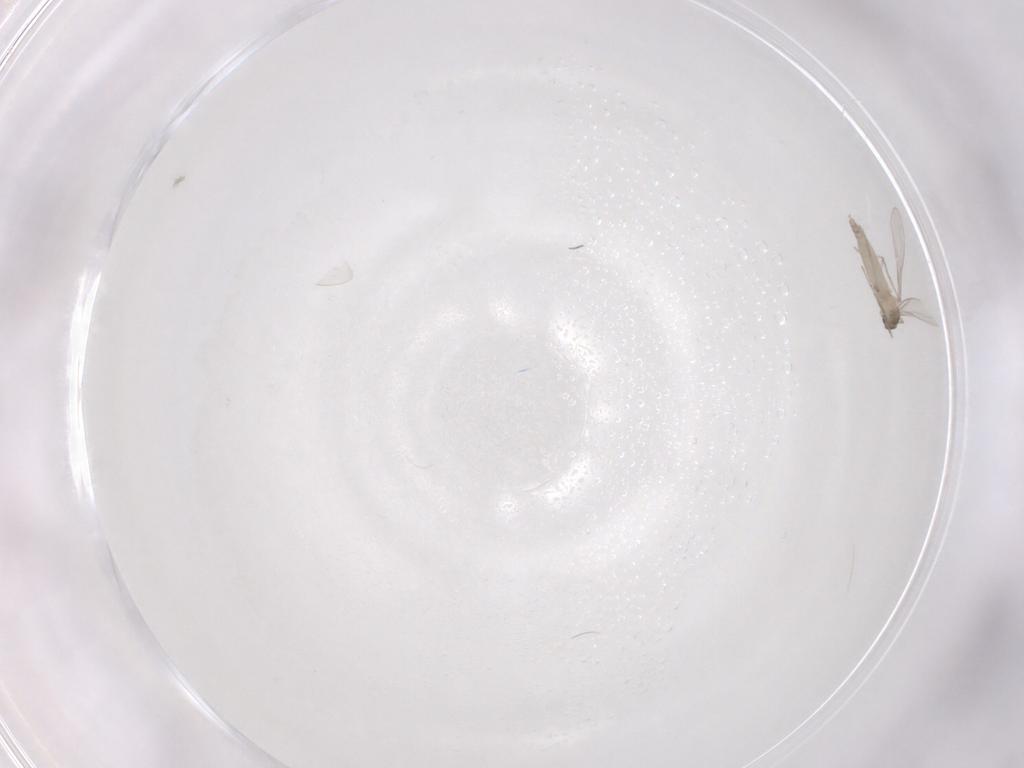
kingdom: Animalia
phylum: Arthropoda
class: Insecta
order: Diptera
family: Cecidomyiidae
